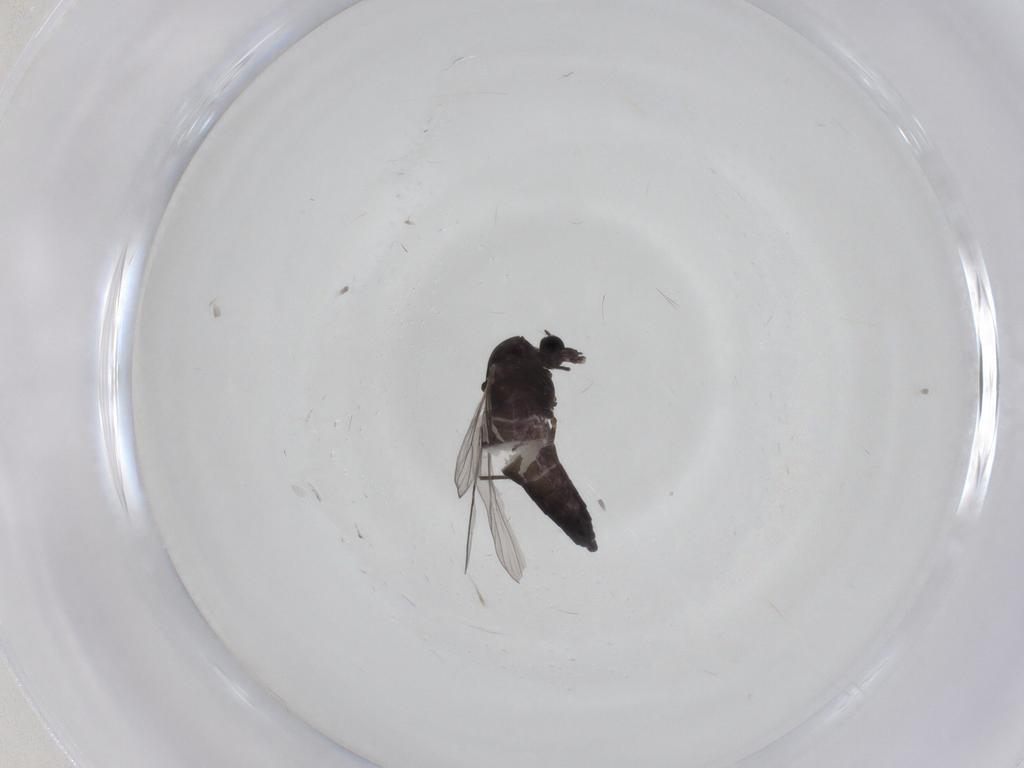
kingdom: Animalia
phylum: Arthropoda
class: Insecta
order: Diptera
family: Chironomidae
